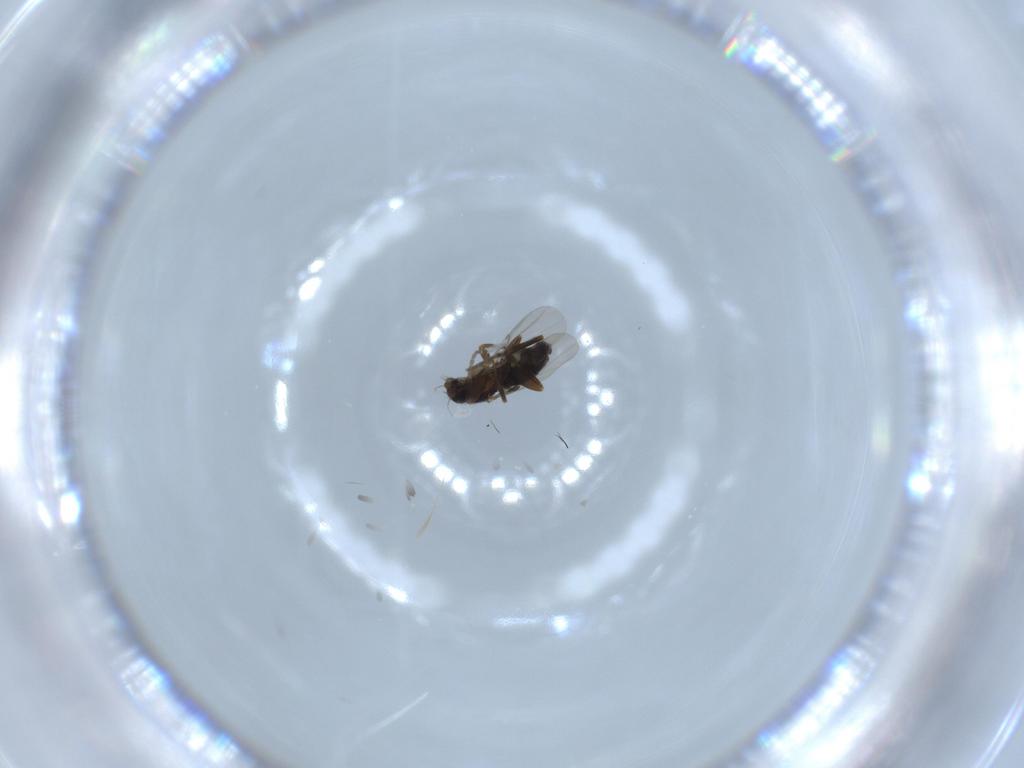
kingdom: Animalia
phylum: Arthropoda
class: Insecta
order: Diptera
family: Phoridae
